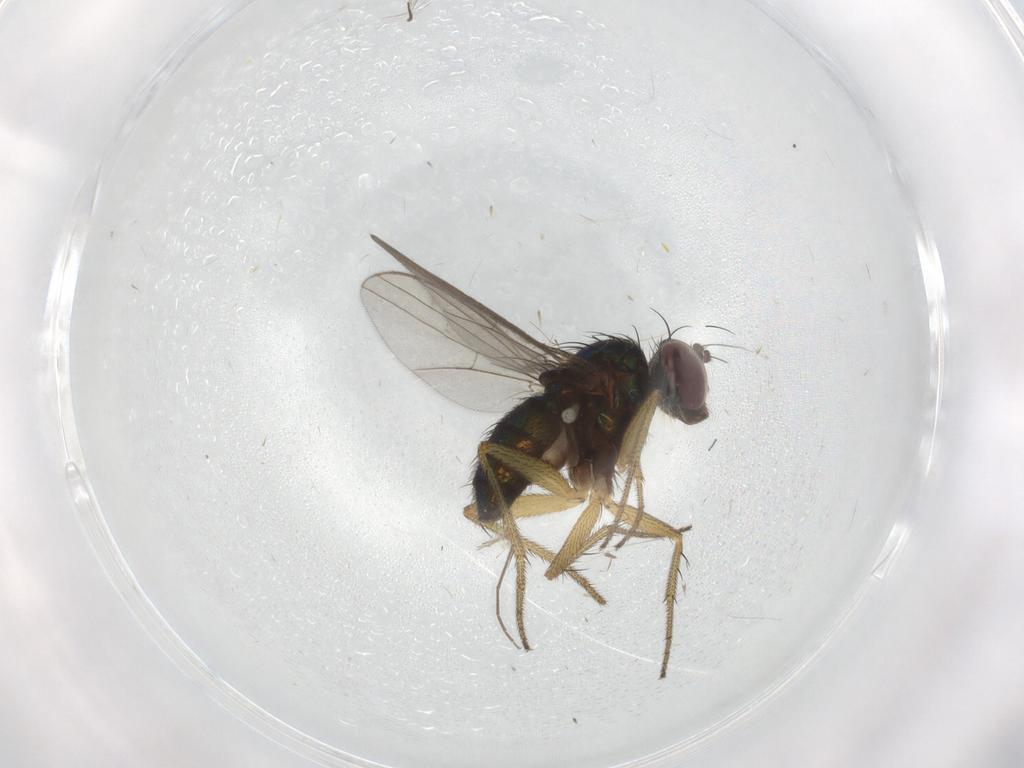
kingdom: Animalia
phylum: Arthropoda
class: Insecta
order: Diptera
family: Dolichopodidae
